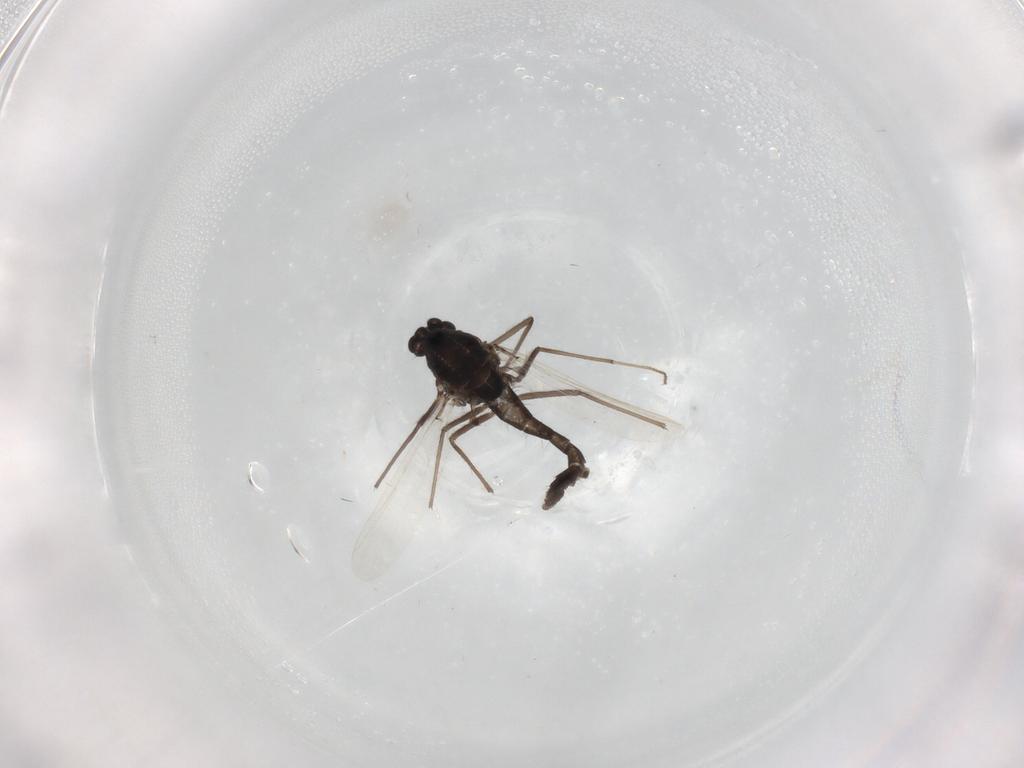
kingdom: Animalia
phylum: Arthropoda
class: Insecta
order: Diptera
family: Chironomidae
